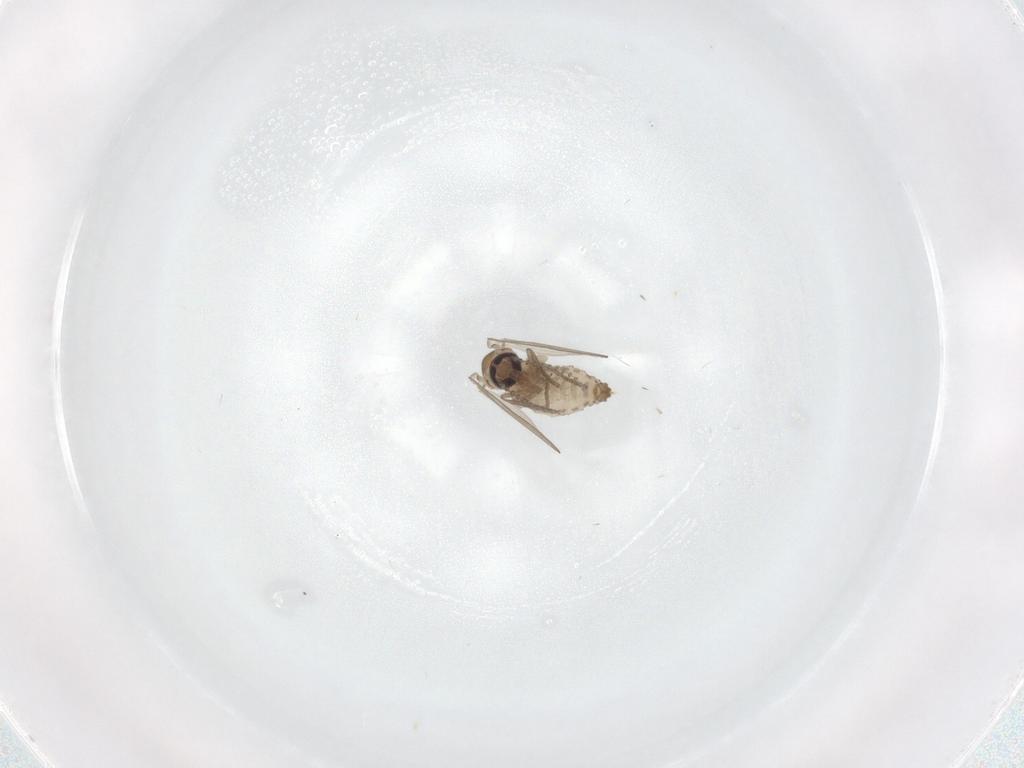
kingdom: Animalia
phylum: Arthropoda
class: Insecta
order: Diptera
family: Psychodidae
